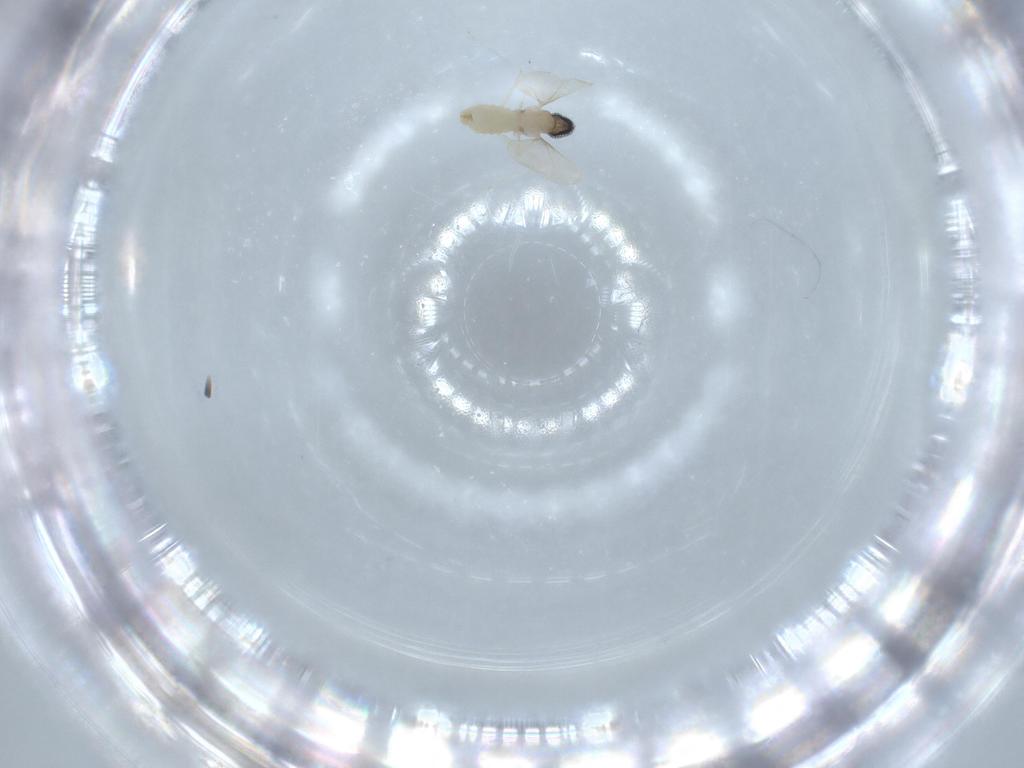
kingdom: Animalia
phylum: Arthropoda
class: Insecta
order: Diptera
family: Cecidomyiidae
